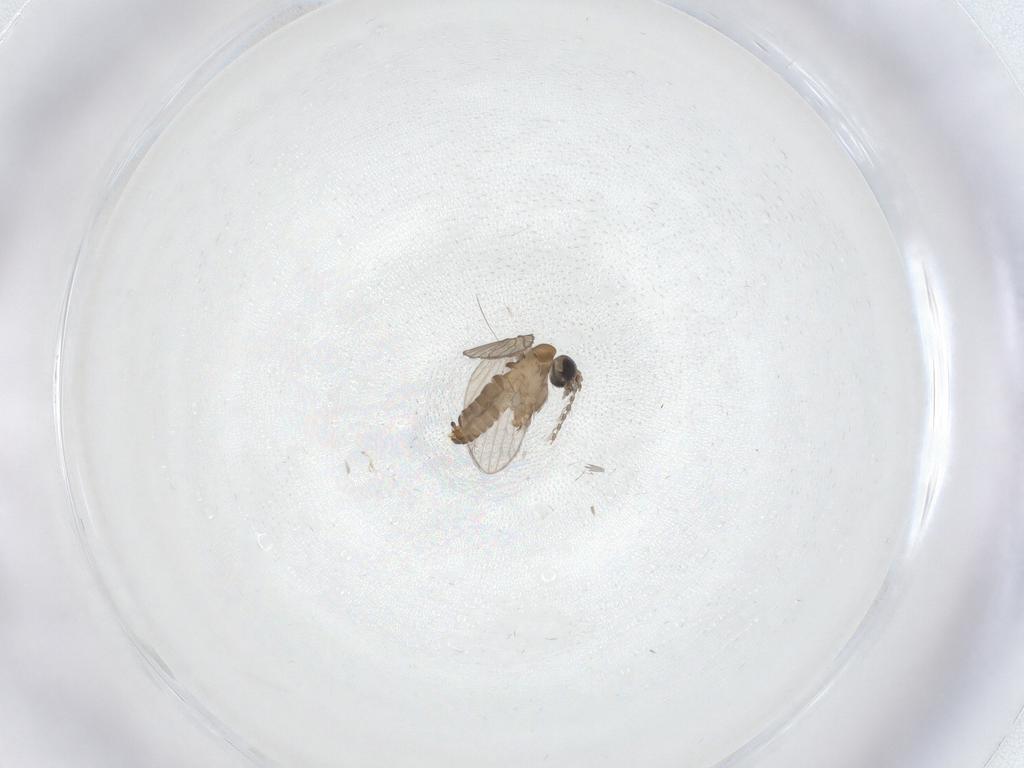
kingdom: Animalia
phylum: Arthropoda
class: Insecta
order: Diptera
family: Psychodidae
